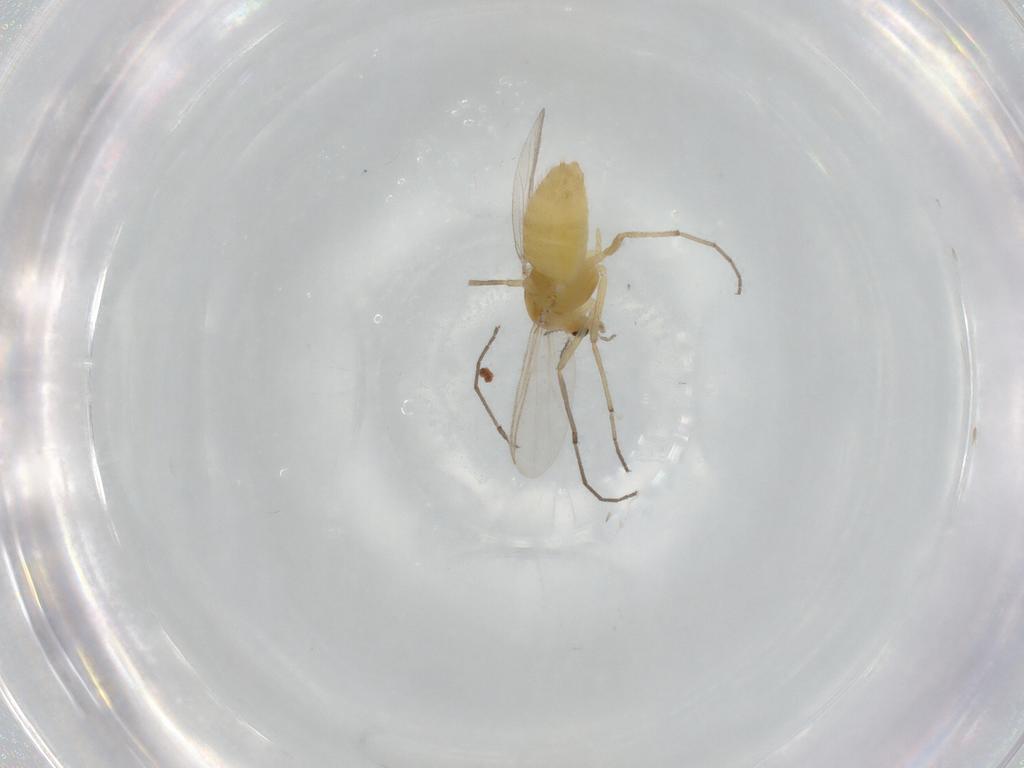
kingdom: Animalia
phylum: Arthropoda
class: Insecta
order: Diptera
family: Chironomidae
